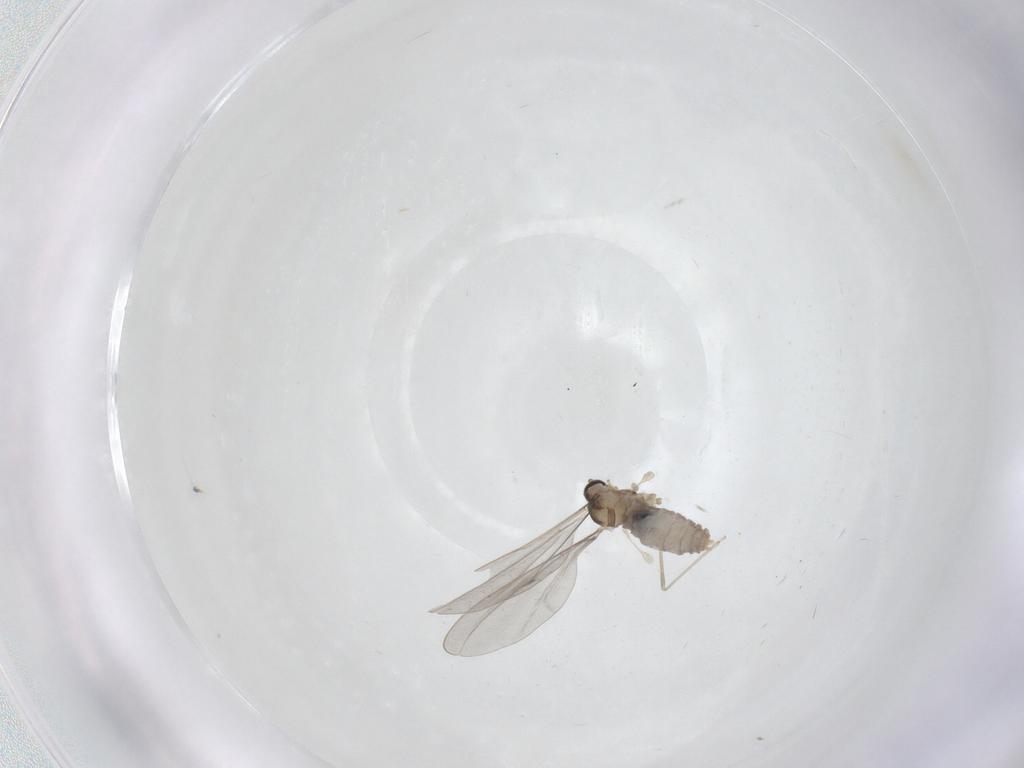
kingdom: Animalia
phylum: Arthropoda
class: Insecta
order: Diptera
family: Cecidomyiidae
